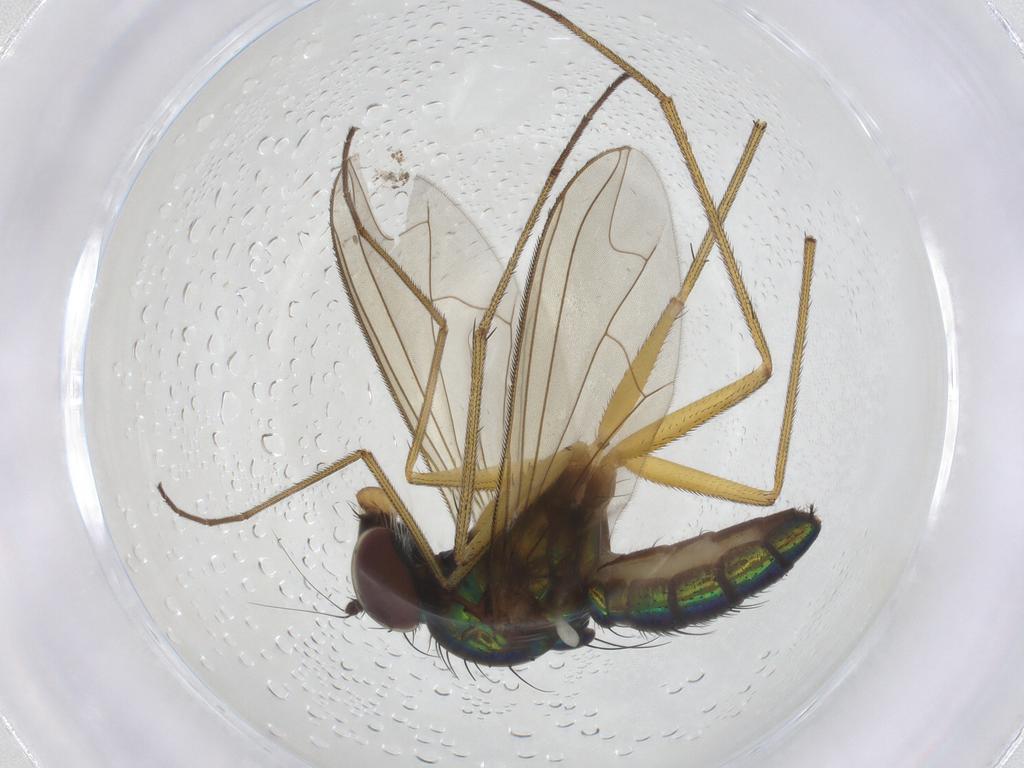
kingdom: Animalia
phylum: Arthropoda
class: Insecta
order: Diptera
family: Dolichopodidae
